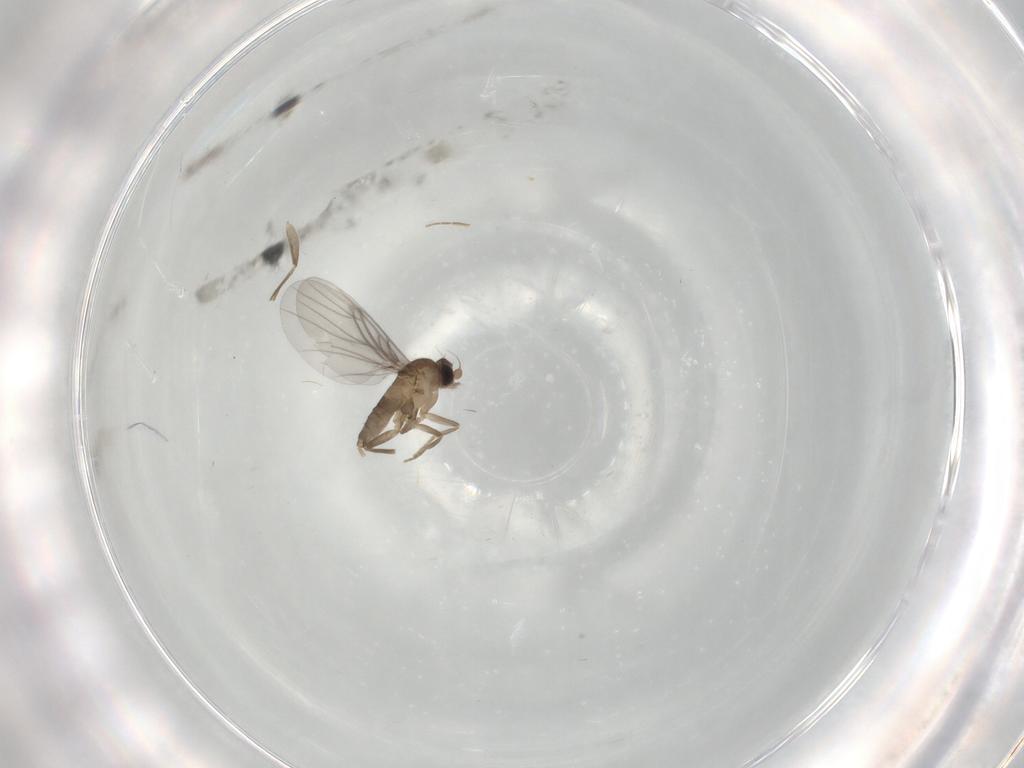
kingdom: Animalia
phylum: Arthropoda
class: Insecta
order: Diptera
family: Phoridae
